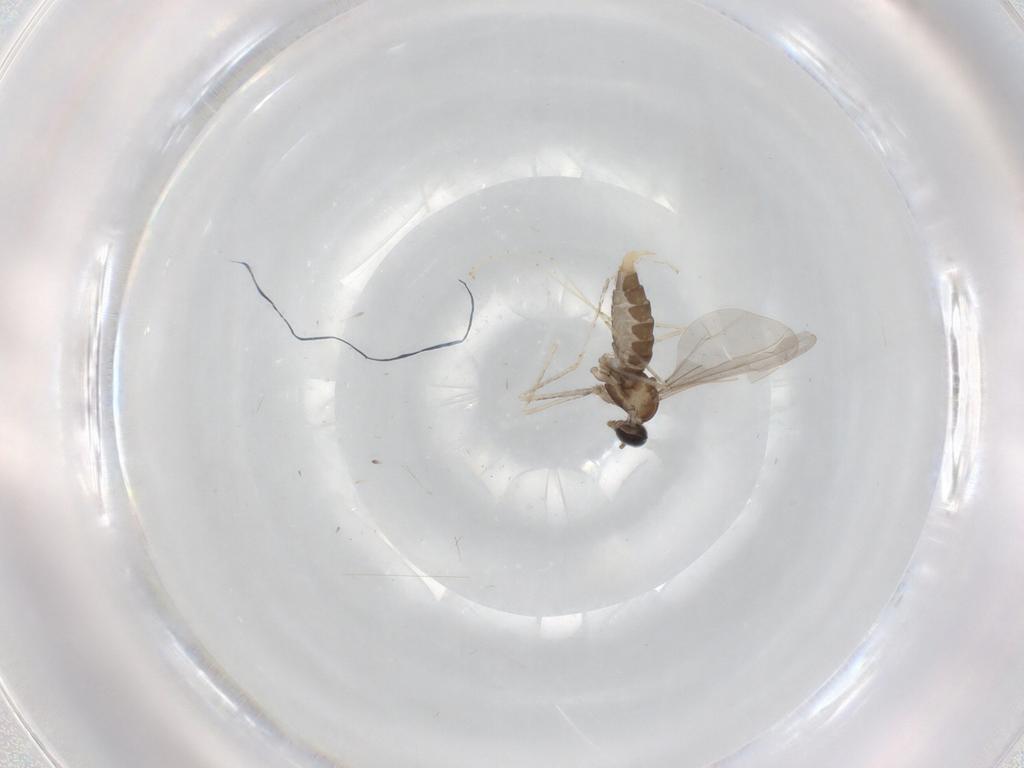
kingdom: Animalia
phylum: Arthropoda
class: Insecta
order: Diptera
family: Cecidomyiidae
